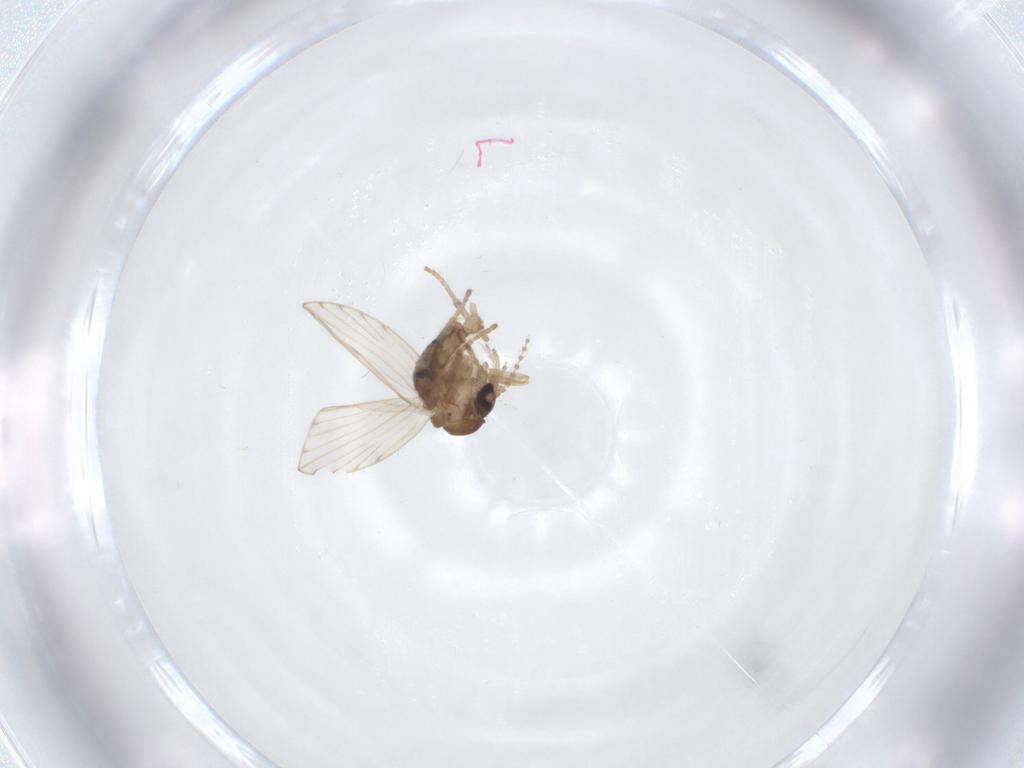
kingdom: Animalia
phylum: Arthropoda
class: Insecta
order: Diptera
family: Psychodidae
